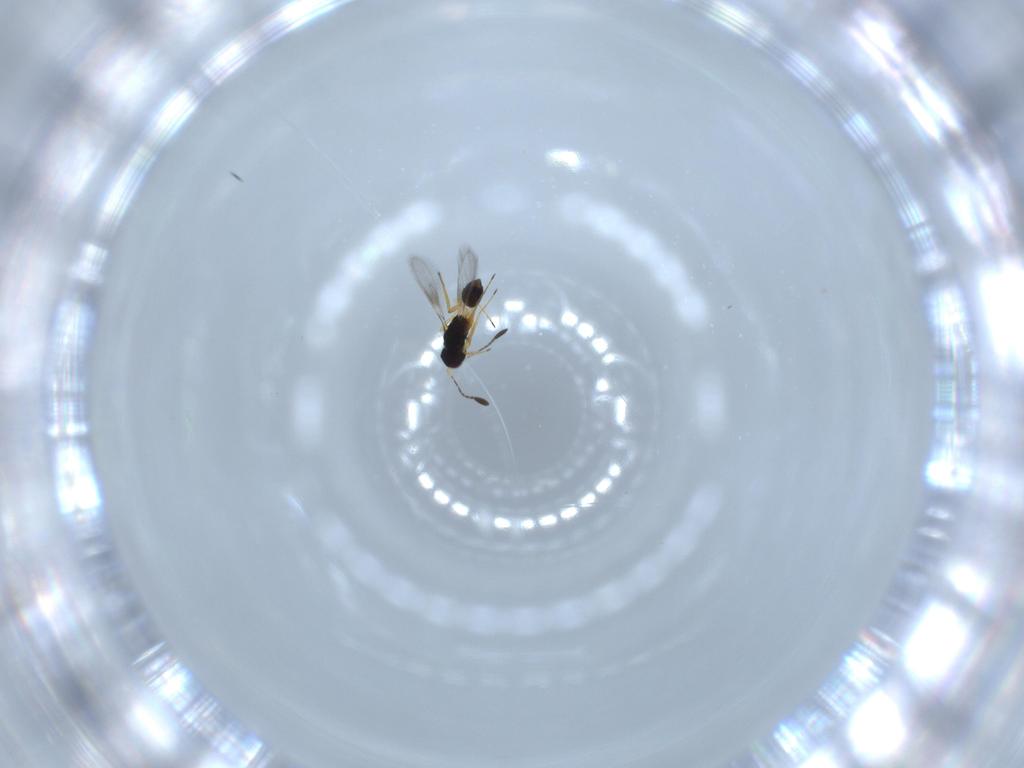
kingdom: Animalia
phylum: Arthropoda
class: Insecta
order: Hymenoptera
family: Mymaridae
